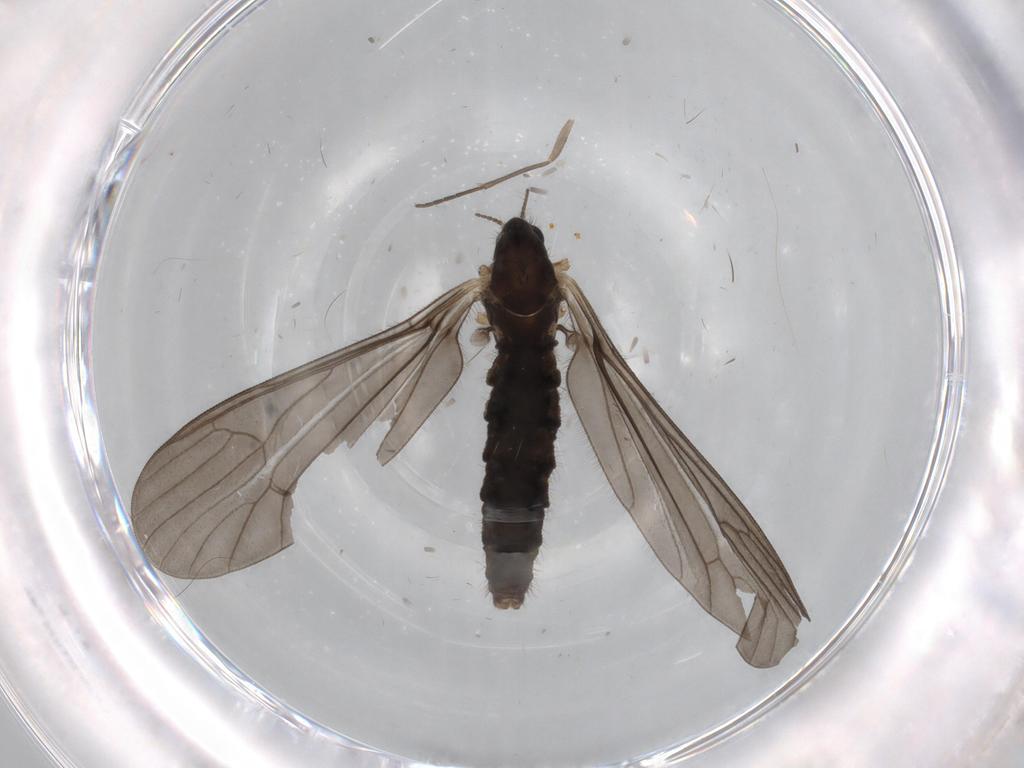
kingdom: Animalia
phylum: Arthropoda
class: Insecta
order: Diptera
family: Limoniidae
